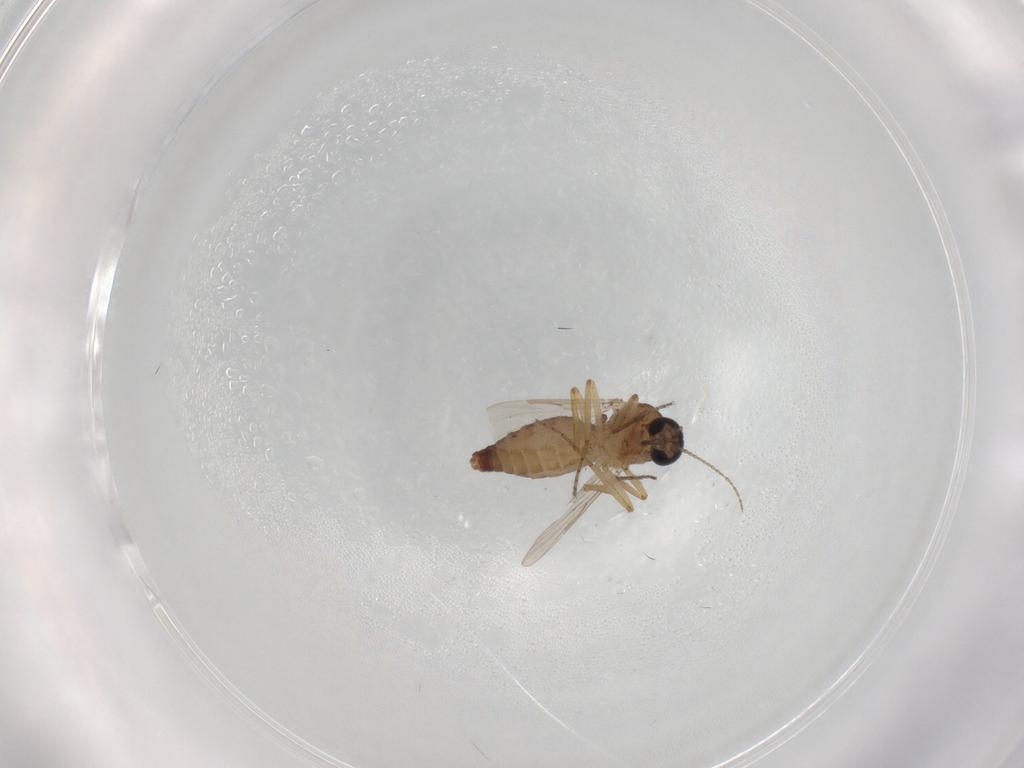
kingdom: Animalia
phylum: Arthropoda
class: Insecta
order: Diptera
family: Ceratopogonidae
